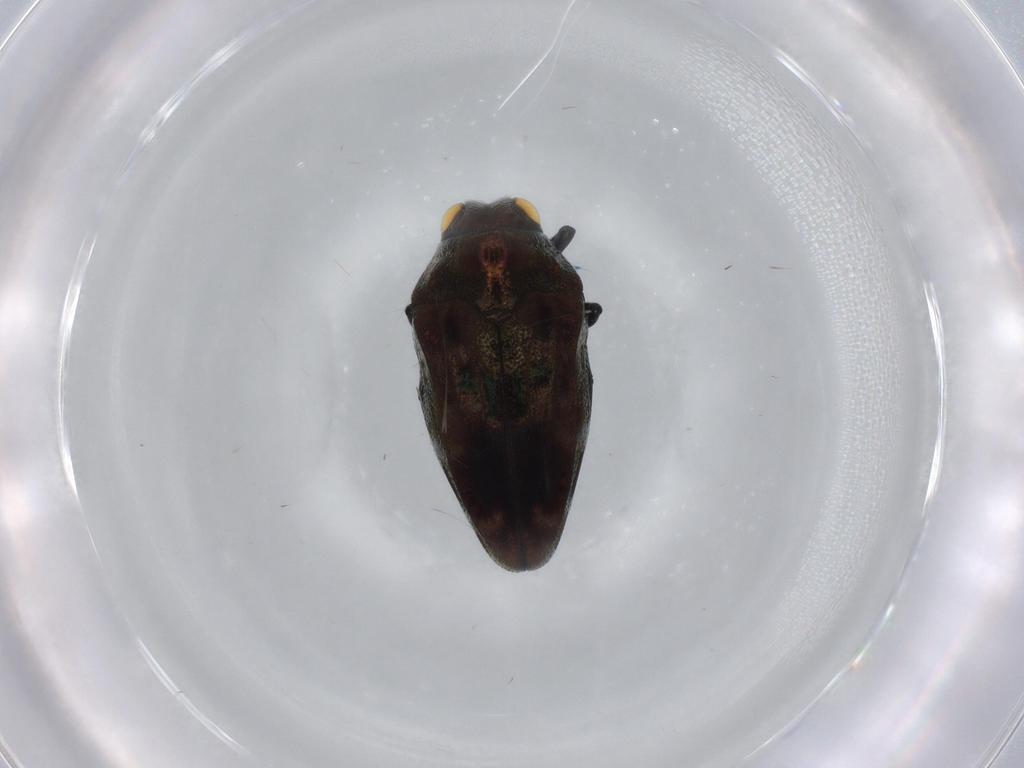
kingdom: Animalia
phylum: Arthropoda
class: Insecta
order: Coleoptera
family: Buprestidae
